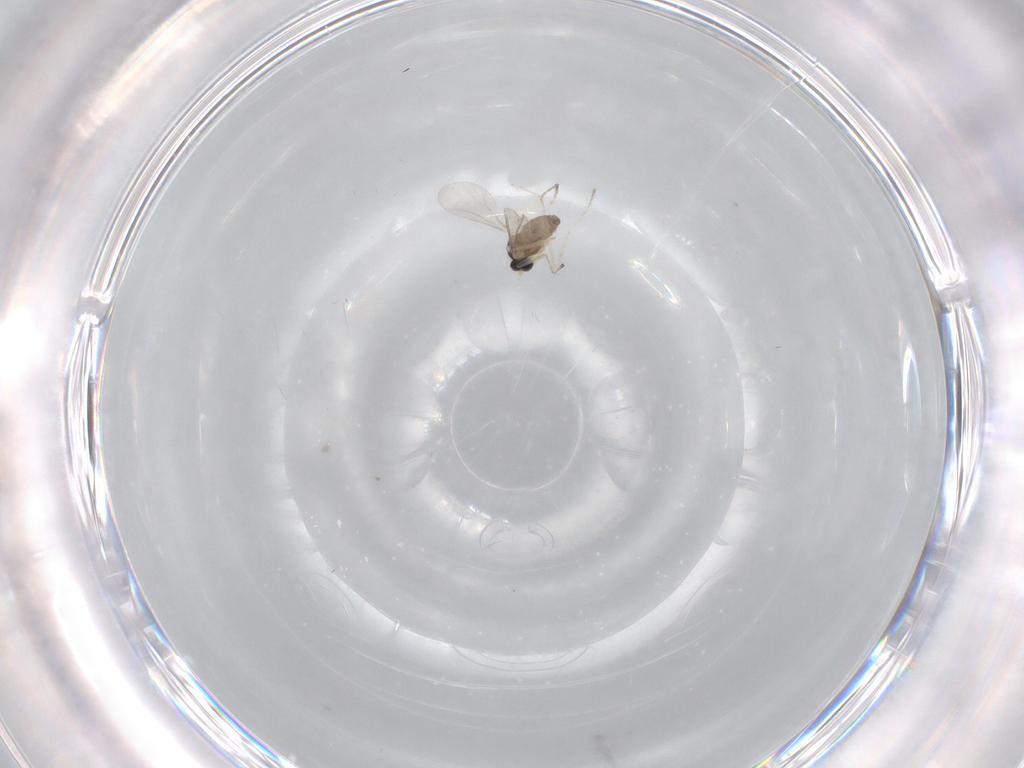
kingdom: Animalia
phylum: Arthropoda
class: Insecta
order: Diptera
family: Cecidomyiidae
